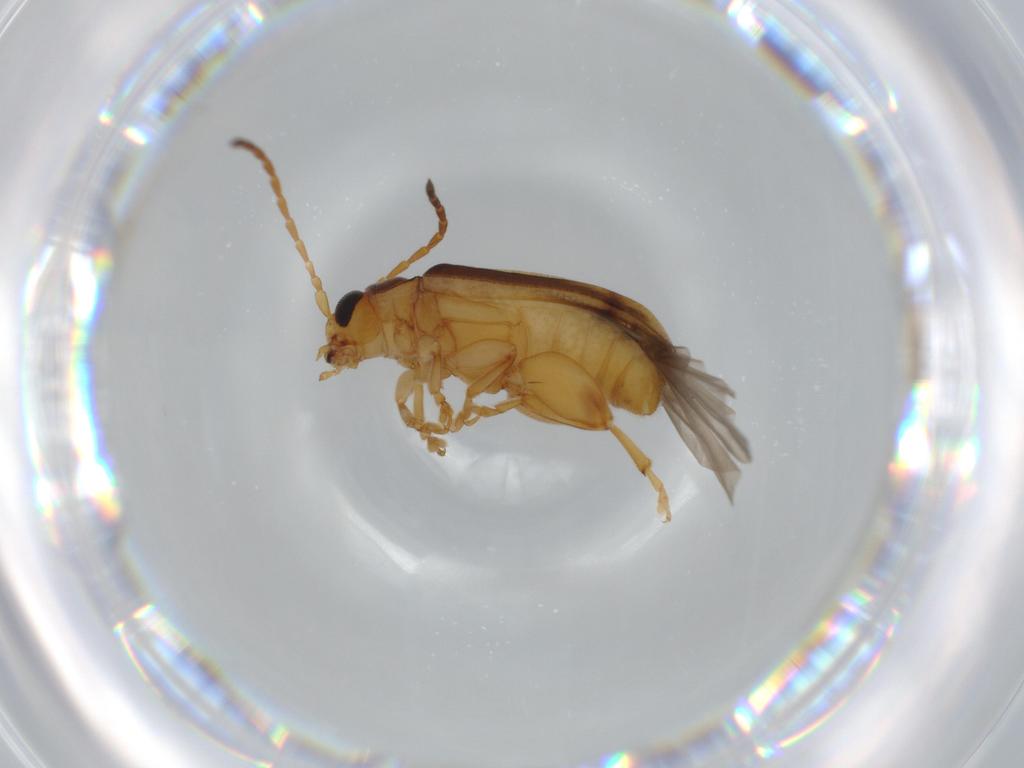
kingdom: Animalia
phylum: Arthropoda
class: Insecta
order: Coleoptera
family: Chrysomelidae
